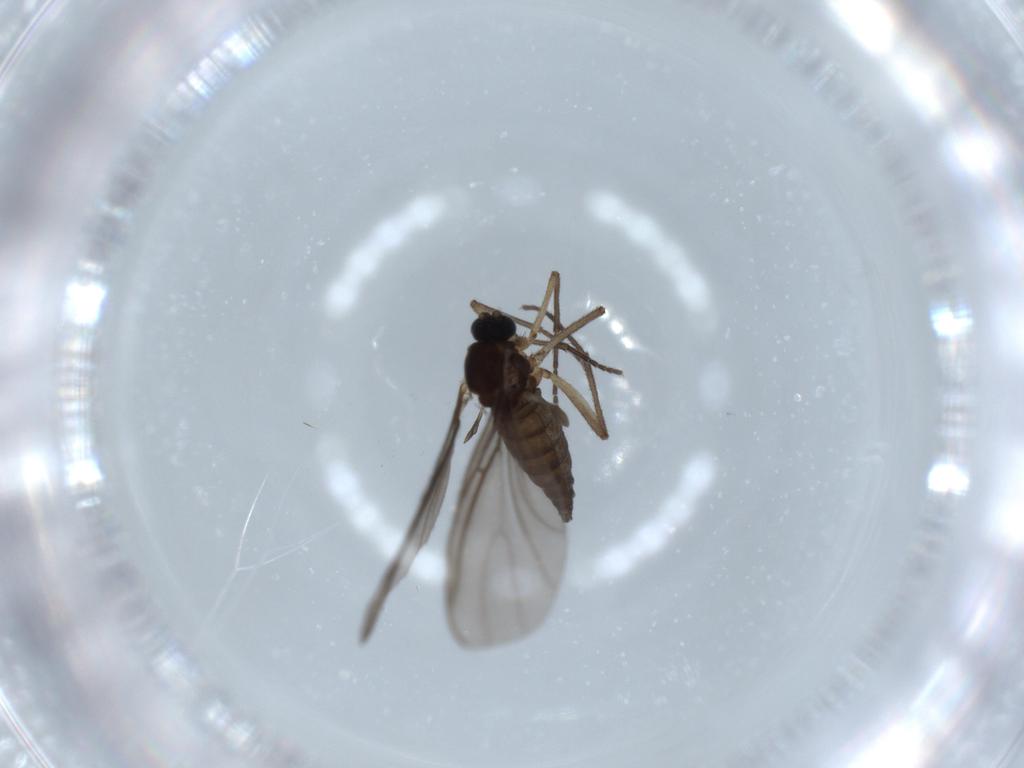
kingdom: Animalia
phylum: Arthropoda
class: Insecta
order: Diptera
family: Sciaridae
